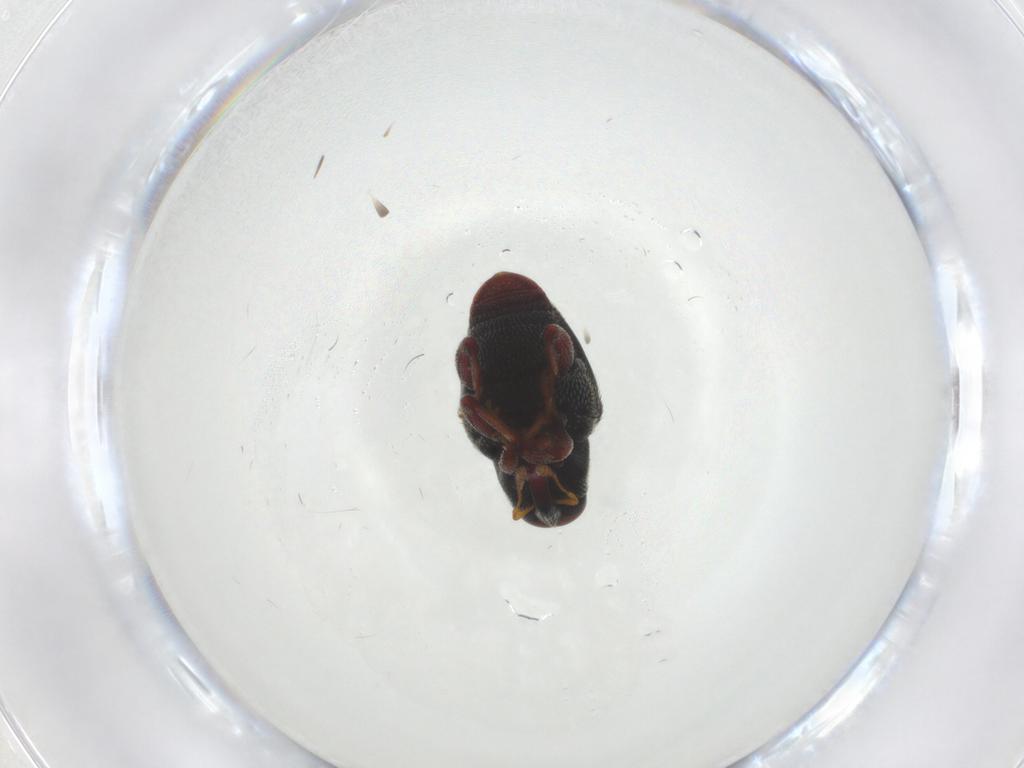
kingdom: Animalia
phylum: Arthropoda
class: Insecta
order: Coleoptera
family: Curculionidae
